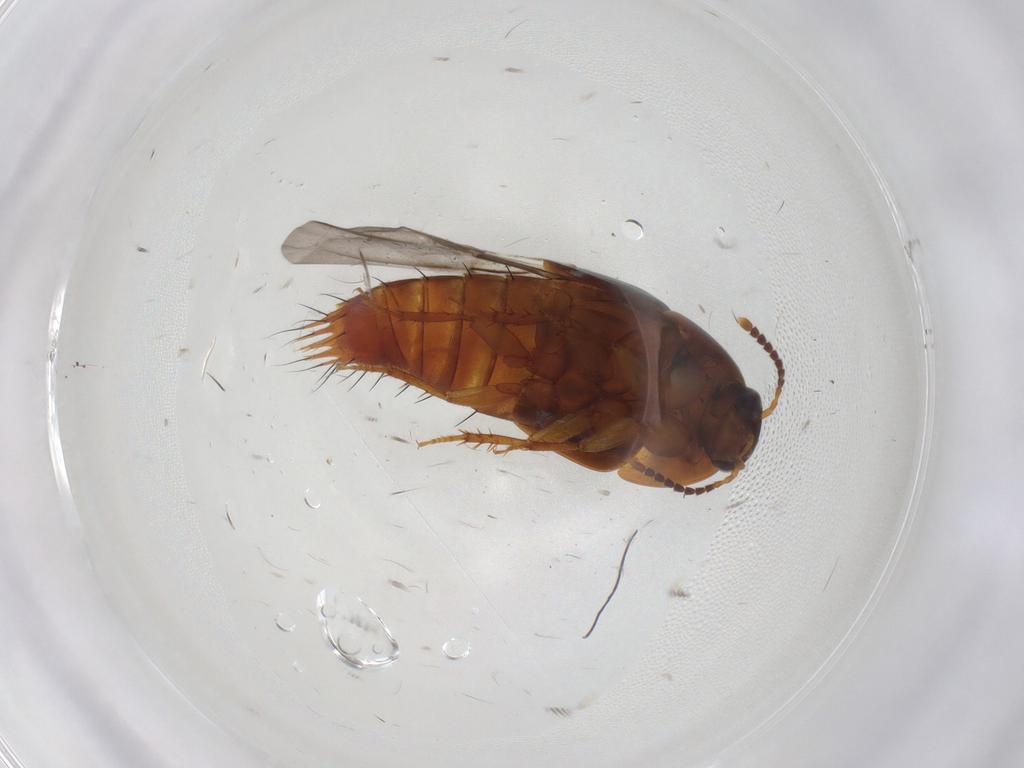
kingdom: Animalia
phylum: Arthropoda
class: Insecta
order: Coleoptera
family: Staphylinidae
